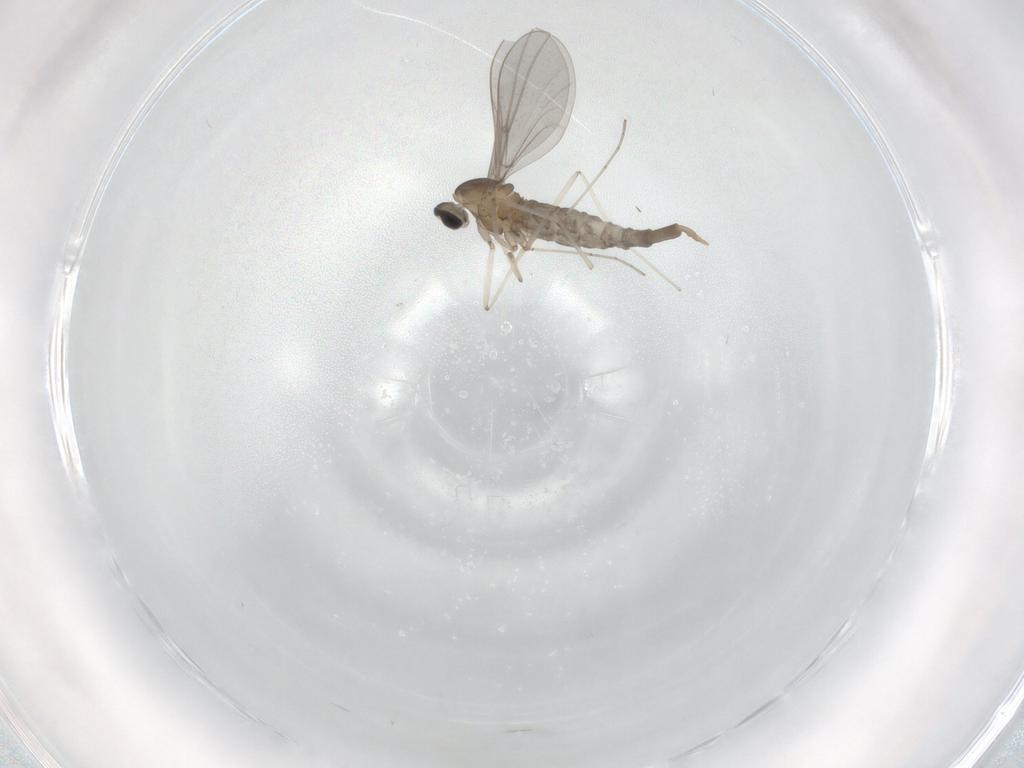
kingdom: Animalia
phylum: Arthropoda
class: Insecta
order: Diptera
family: Cecidomyiidae
